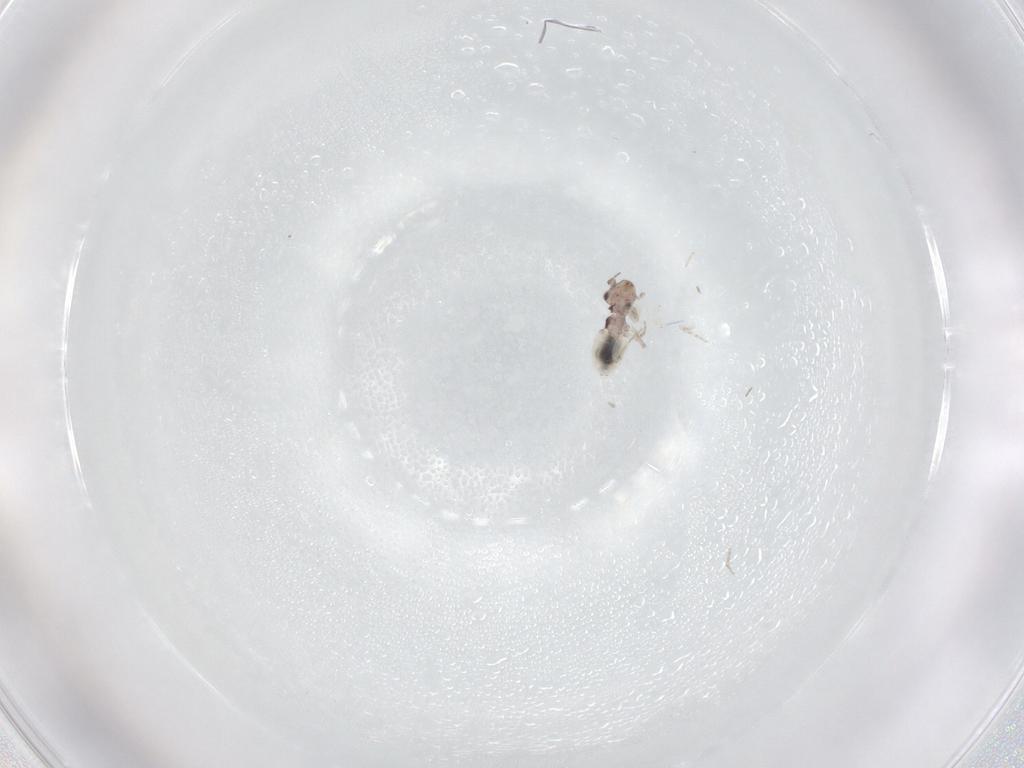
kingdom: Animalia
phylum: Arthropoda
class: Insecta
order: Psocodea
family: Lepidopsocidae
